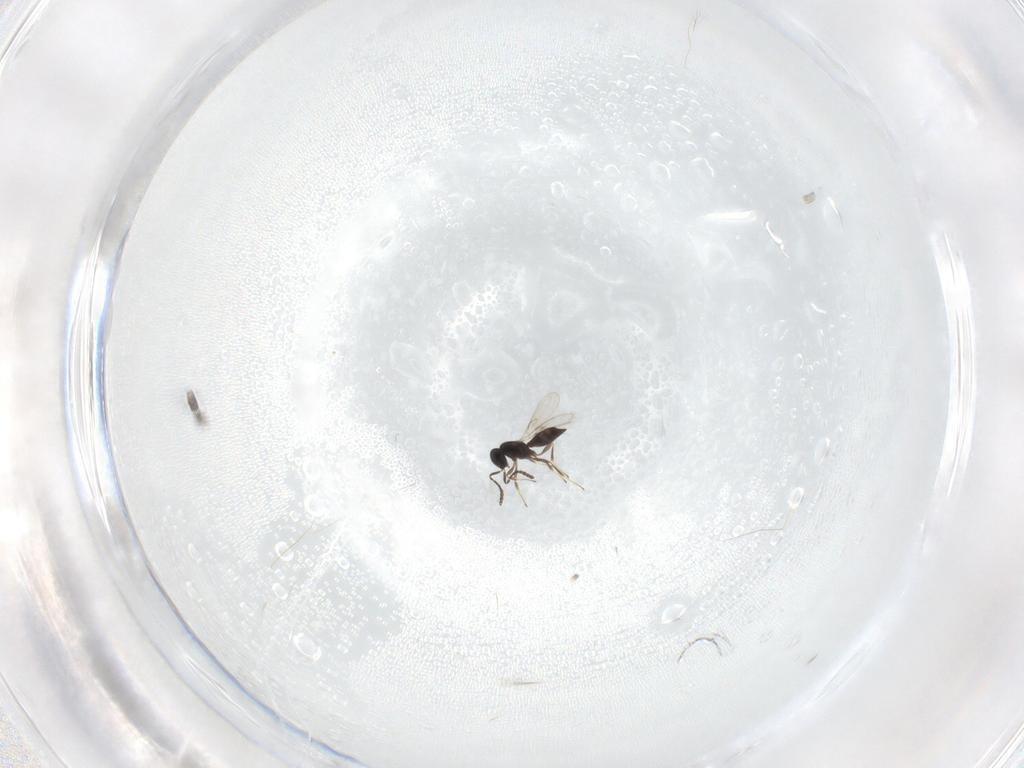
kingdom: Animalia
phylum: Arthropoda
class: Insecta
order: Hymenoptera
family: Scelionidae
